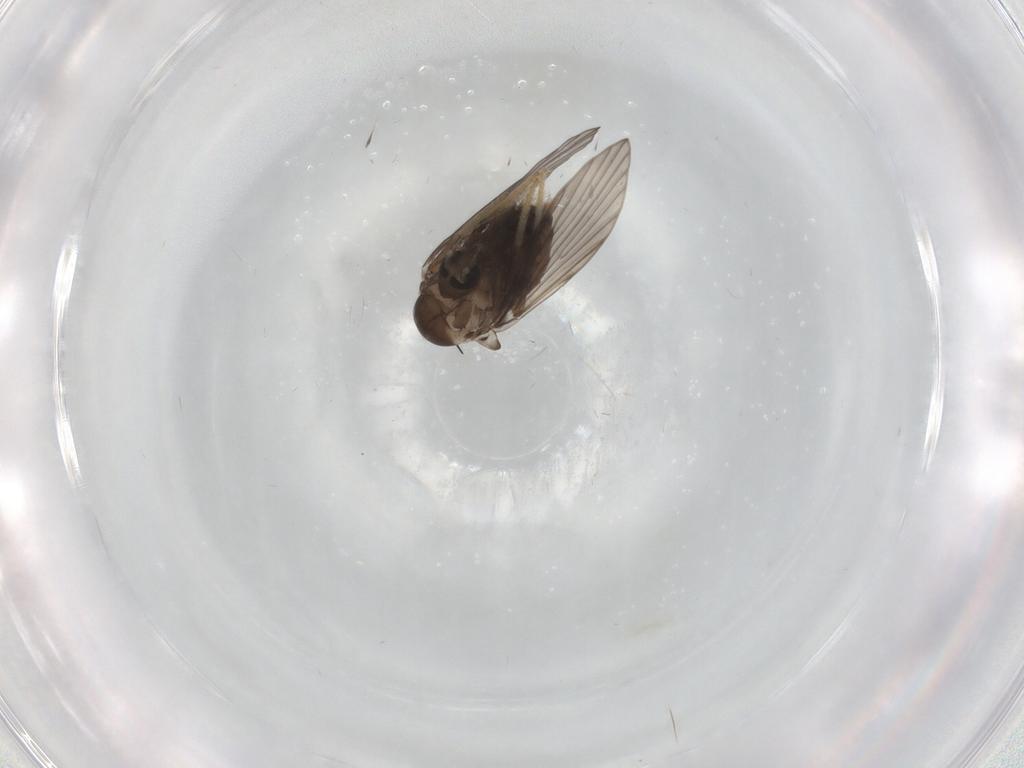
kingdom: Animalia
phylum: Arthropoda
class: Insecta
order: Diptera
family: Psychodidae
